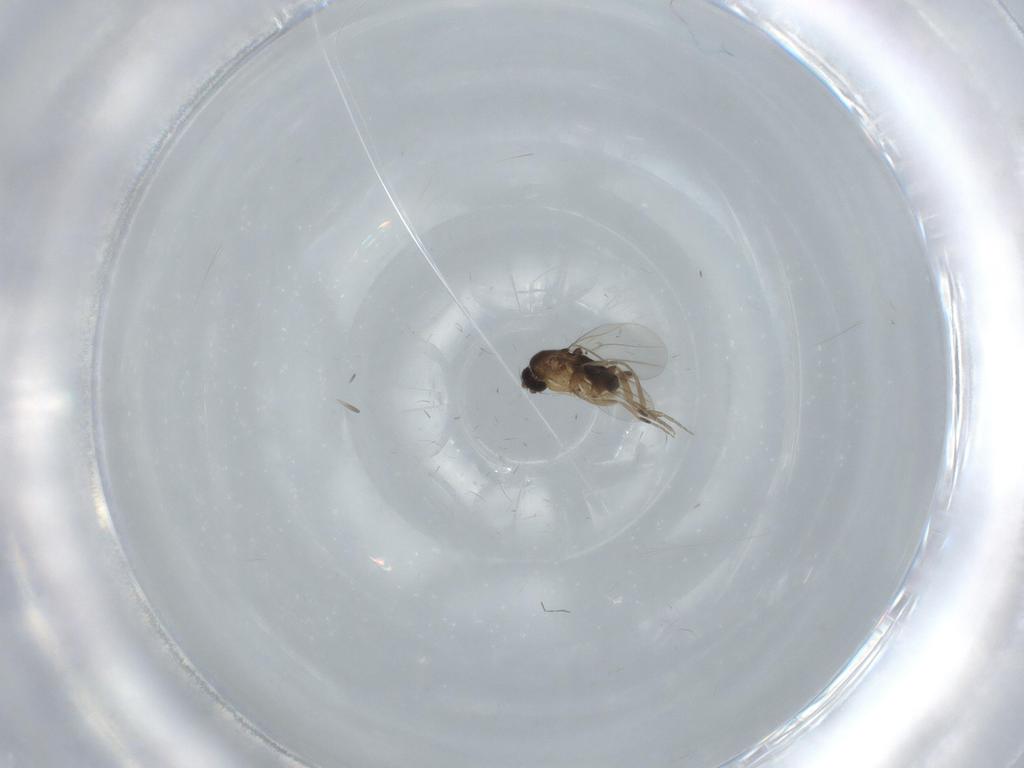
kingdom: Animalia
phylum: Arthropoda
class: Insecta
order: Diptera
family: Phoridae
